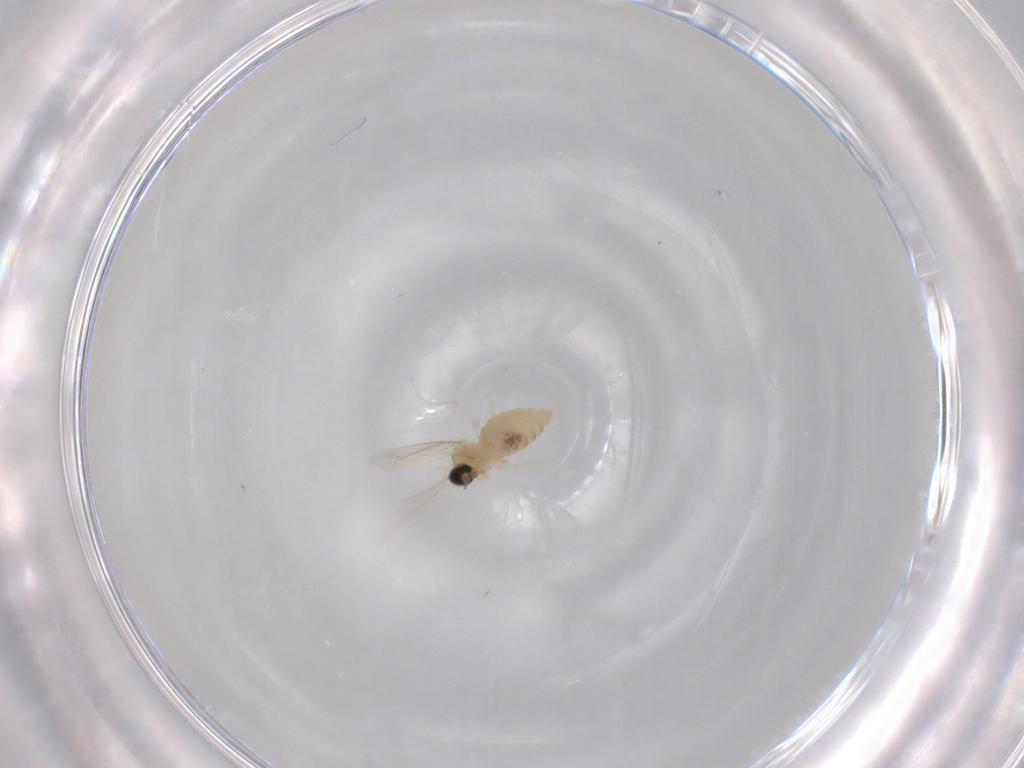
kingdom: Animalia
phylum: Arthropoda
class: Insecta
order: Diptera
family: Cecidomyiidae
